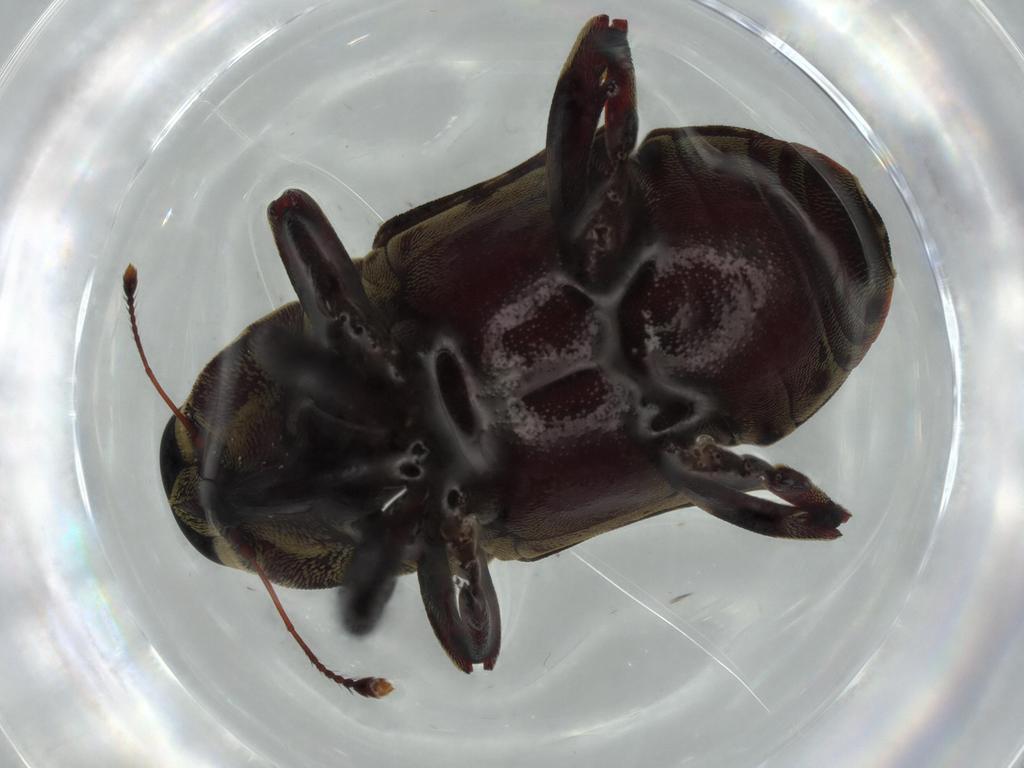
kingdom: Animalia
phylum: Arthropoda
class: Insecta
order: Coleoptera
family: Curculionidae
